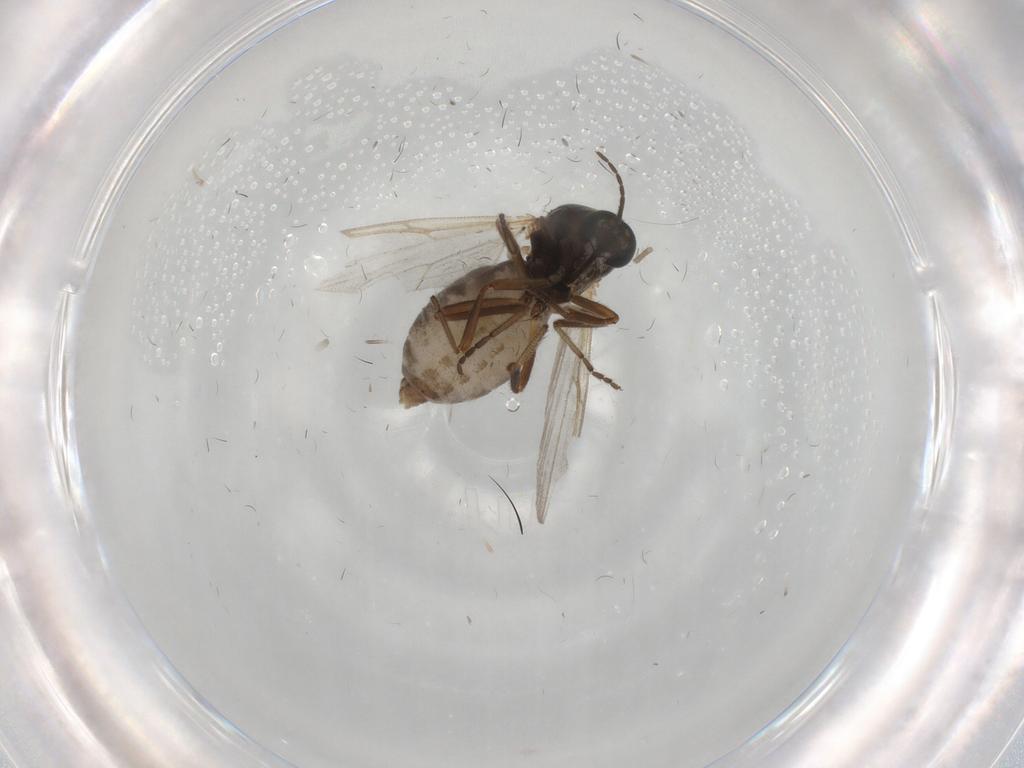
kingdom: Animalia
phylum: Arthropoda
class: Insecta
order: Diptera
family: Ceratopogonidae
